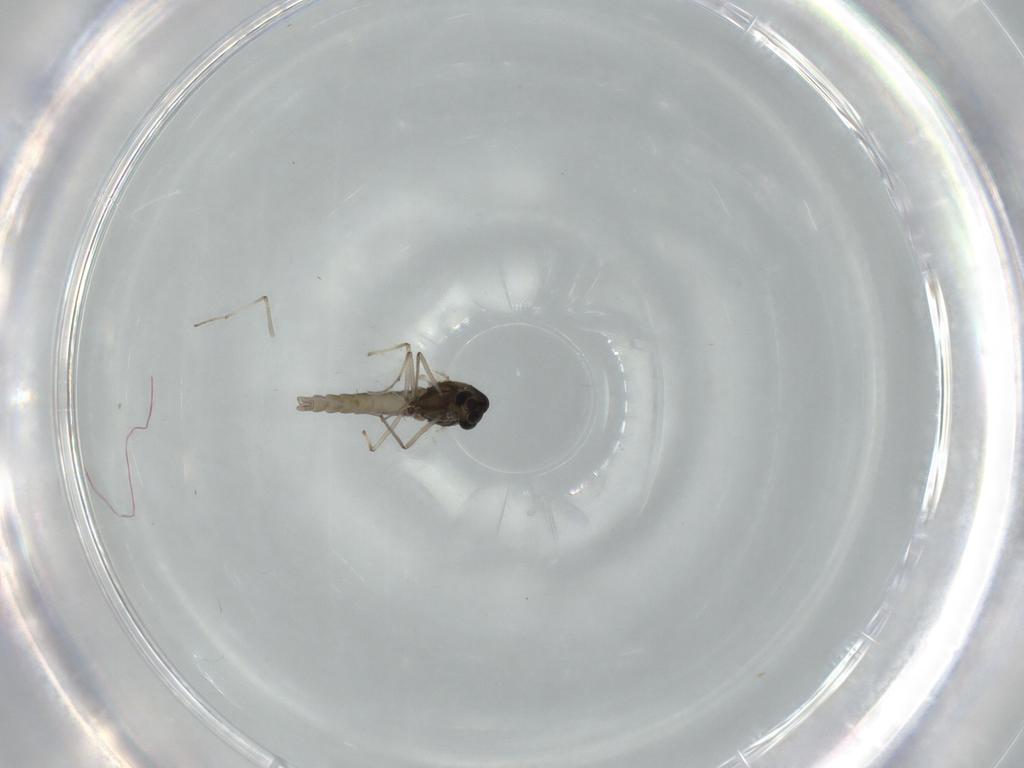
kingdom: Animalia
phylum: Arthropoda
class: Insecta
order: Diptera
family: Chironomidae
